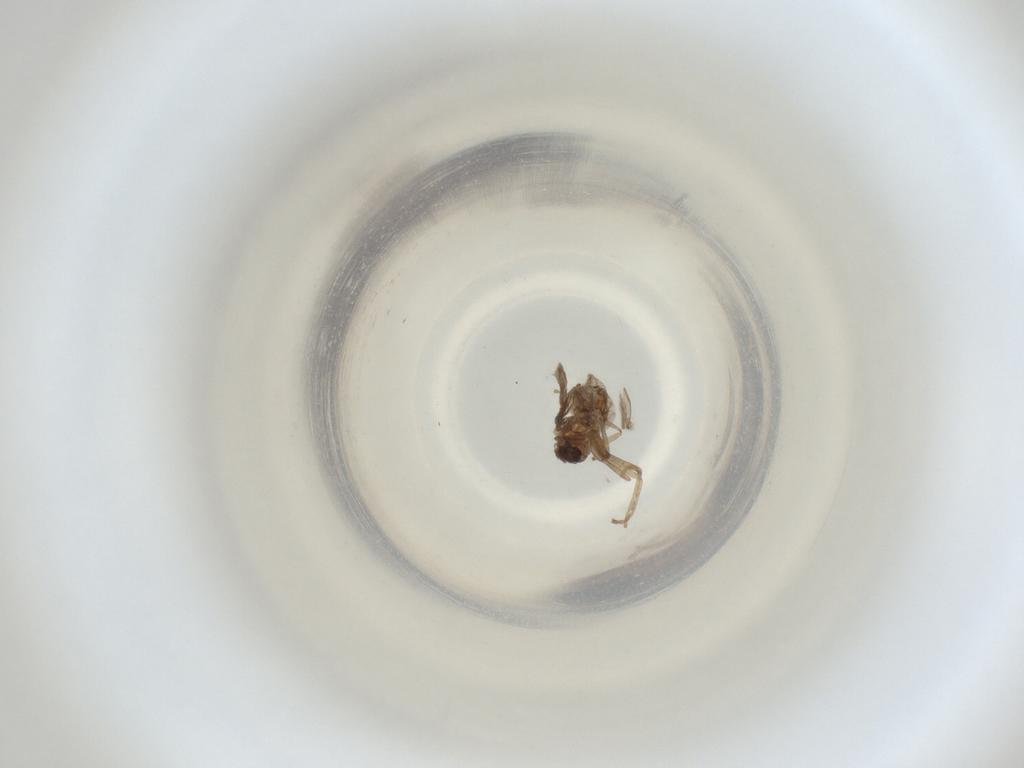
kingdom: Animalia
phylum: Arthropoda
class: Insecta
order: Diptera
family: Cecidomyiidae
